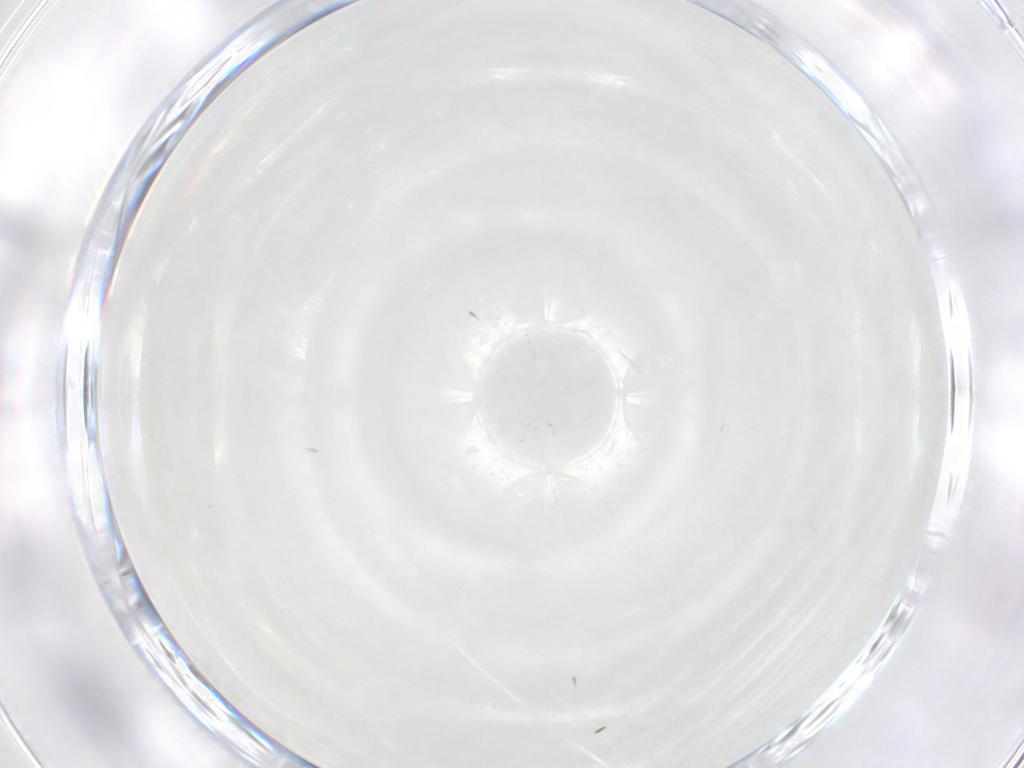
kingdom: Animalia
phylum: Arthropoda
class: Insecta
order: Lepidoptera
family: Geometridae
